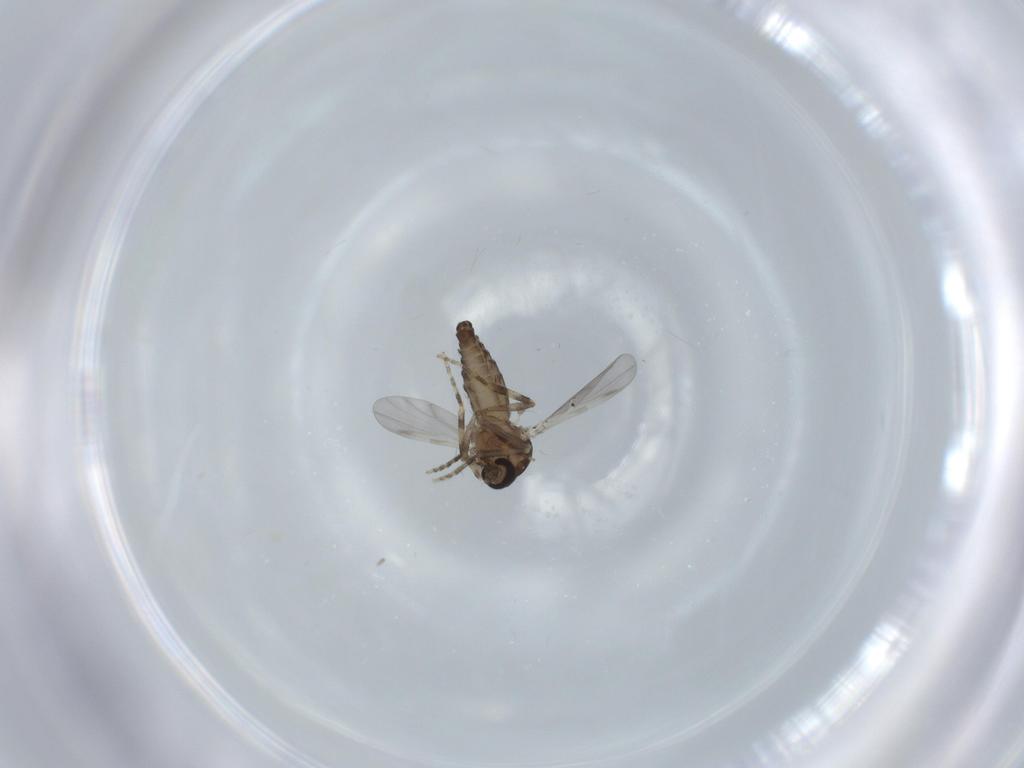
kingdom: Animalia
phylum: Arthropoda
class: Insecta
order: Diptera
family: Ceratopogonidae
